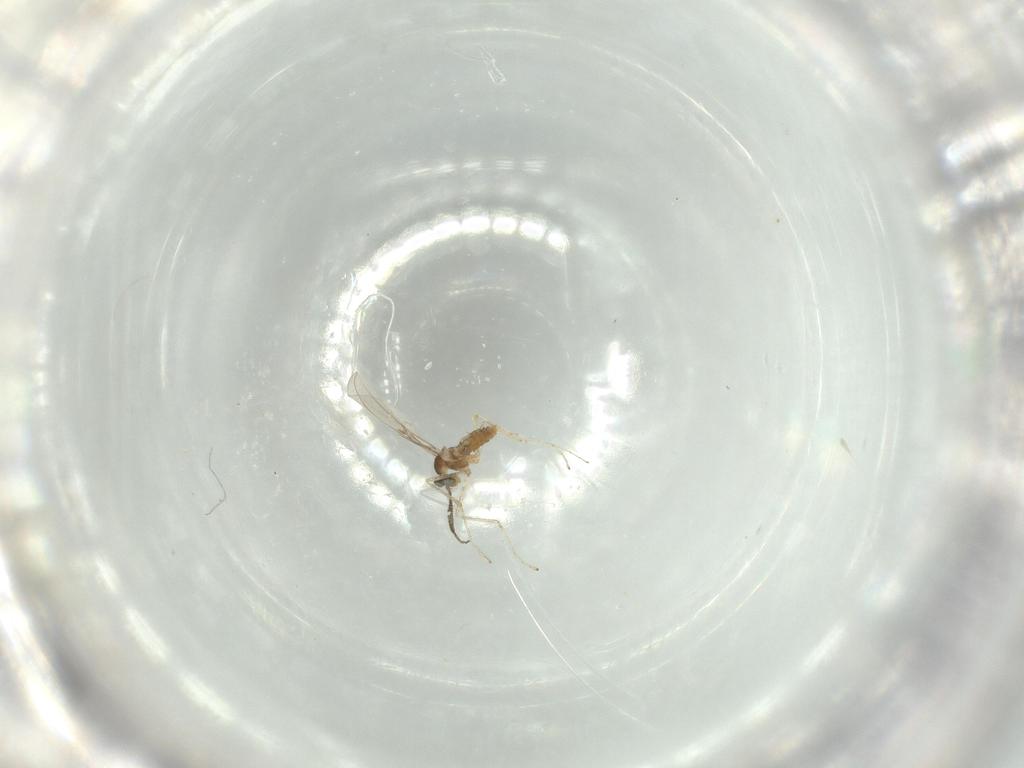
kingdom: Animalia
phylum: Arthropoda
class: Insecta
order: Diptera
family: Cecidomyiidae
